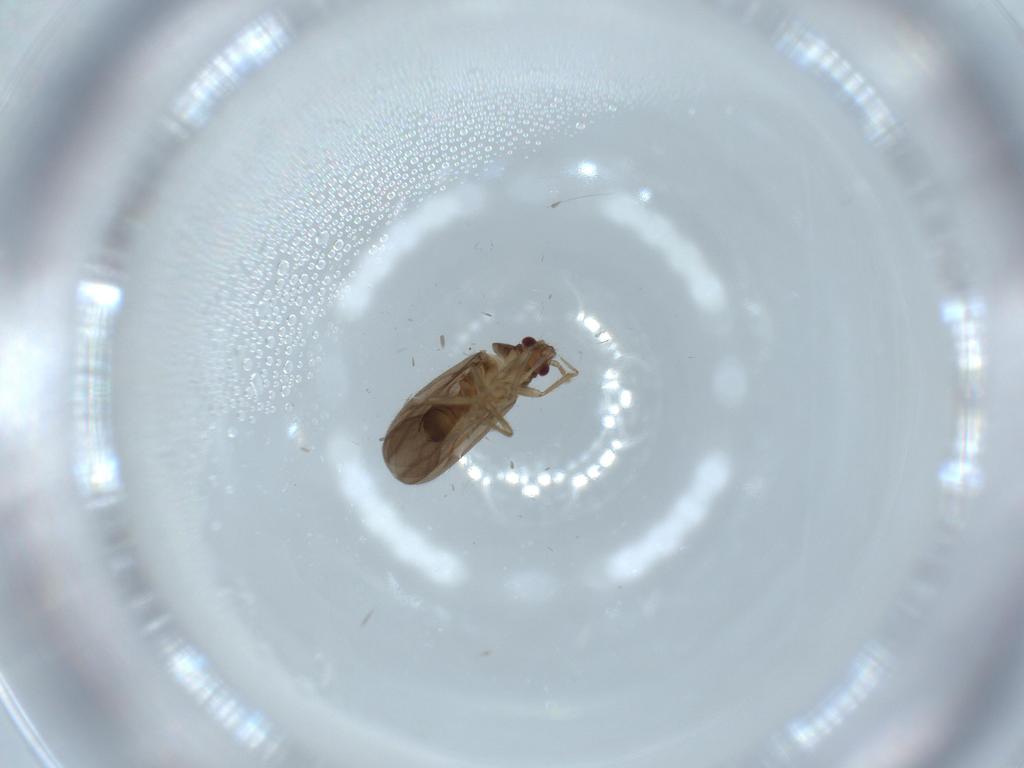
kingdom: Animalia
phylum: Arthropoda
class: Insecta
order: Hemiptera
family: Ceratocombidae
